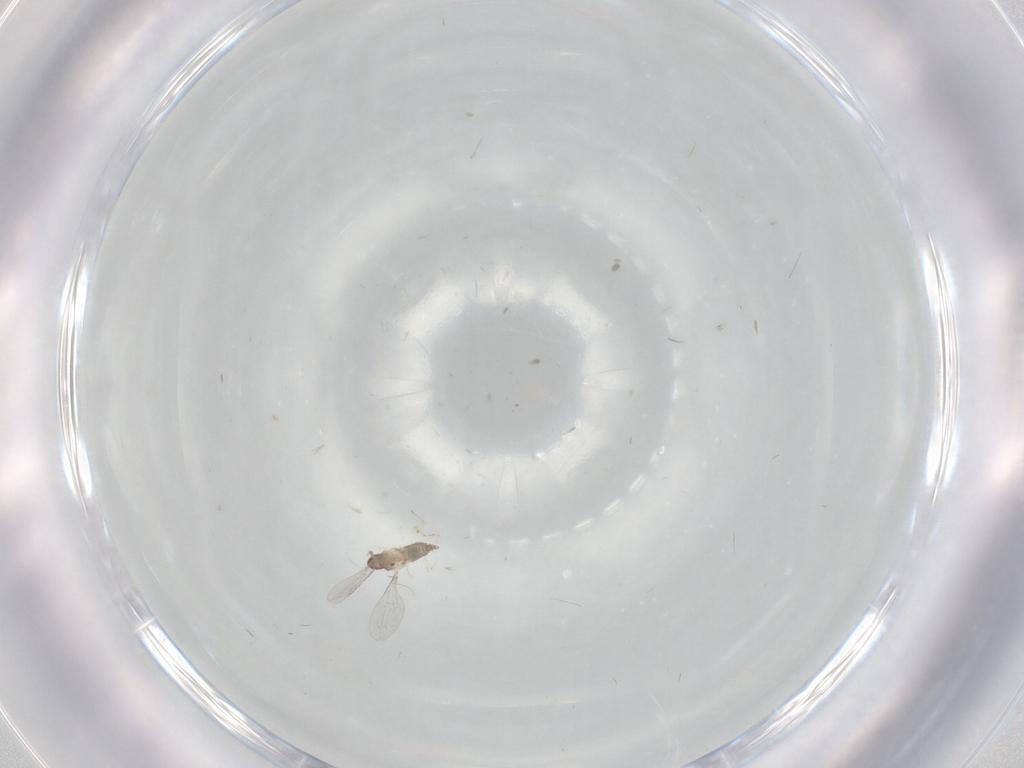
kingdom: Animalia
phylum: Arthropoda
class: Insecta
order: Diptera
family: Cecidomyiidae
